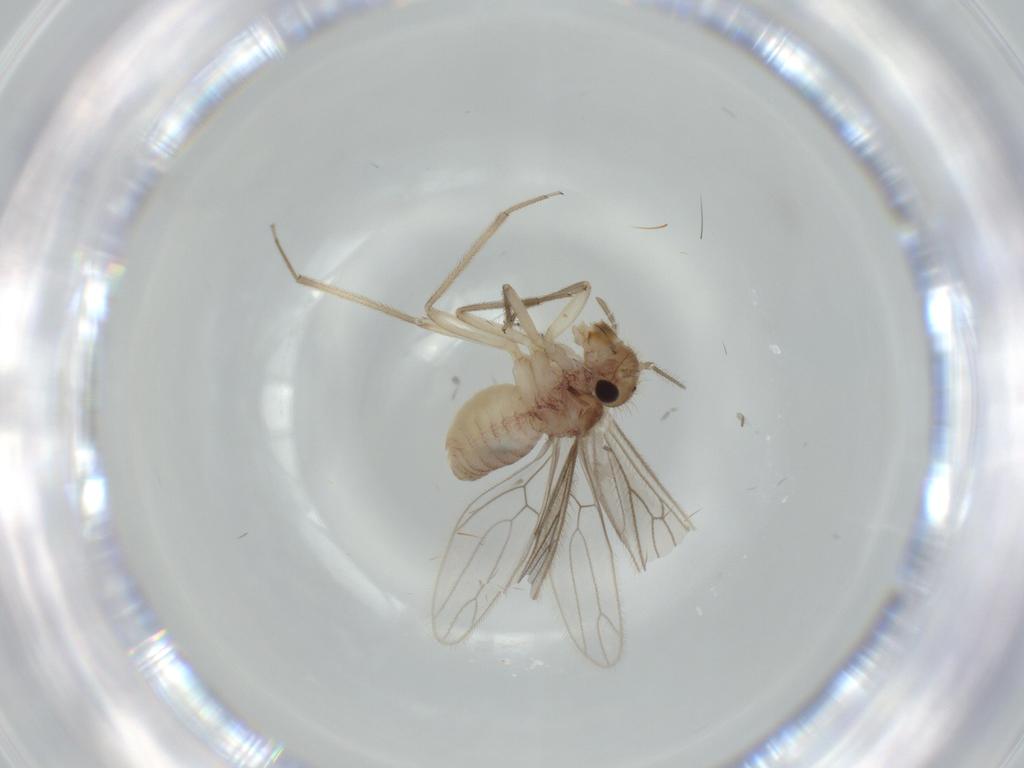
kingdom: Animalia
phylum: Arthropoda
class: Insecta
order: Psocodea
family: Cladiopsocidae
